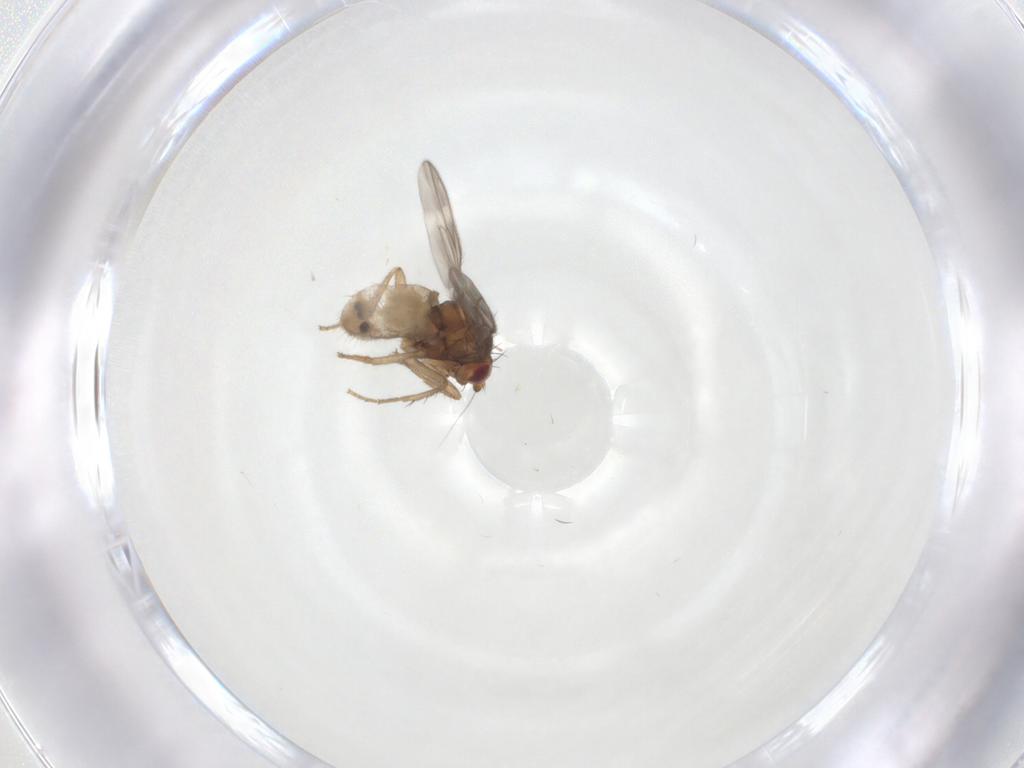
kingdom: Animalia
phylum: Arthropoda
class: Insecta
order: Diptera
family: Sphaeroceridae
